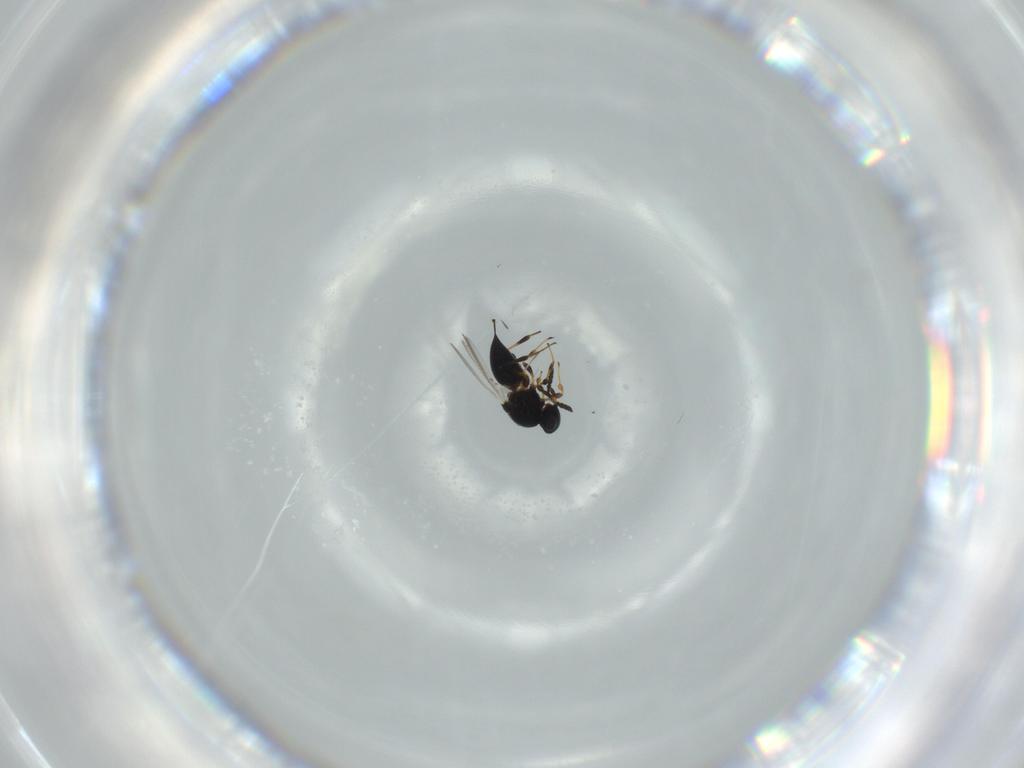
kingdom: Animalia
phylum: Arthropoda
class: Insecta
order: Hymenoptera
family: Platygastridae
